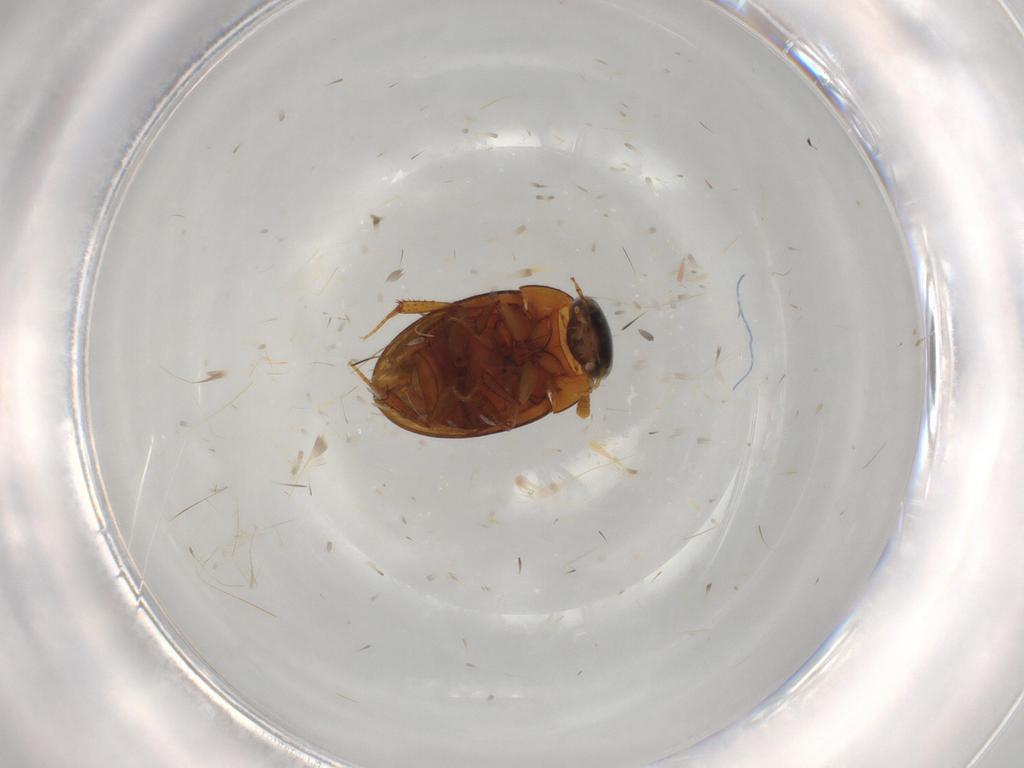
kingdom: Animalia
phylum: Arthropoda
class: Insecta
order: Coleoptera
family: Hydrophilidae
